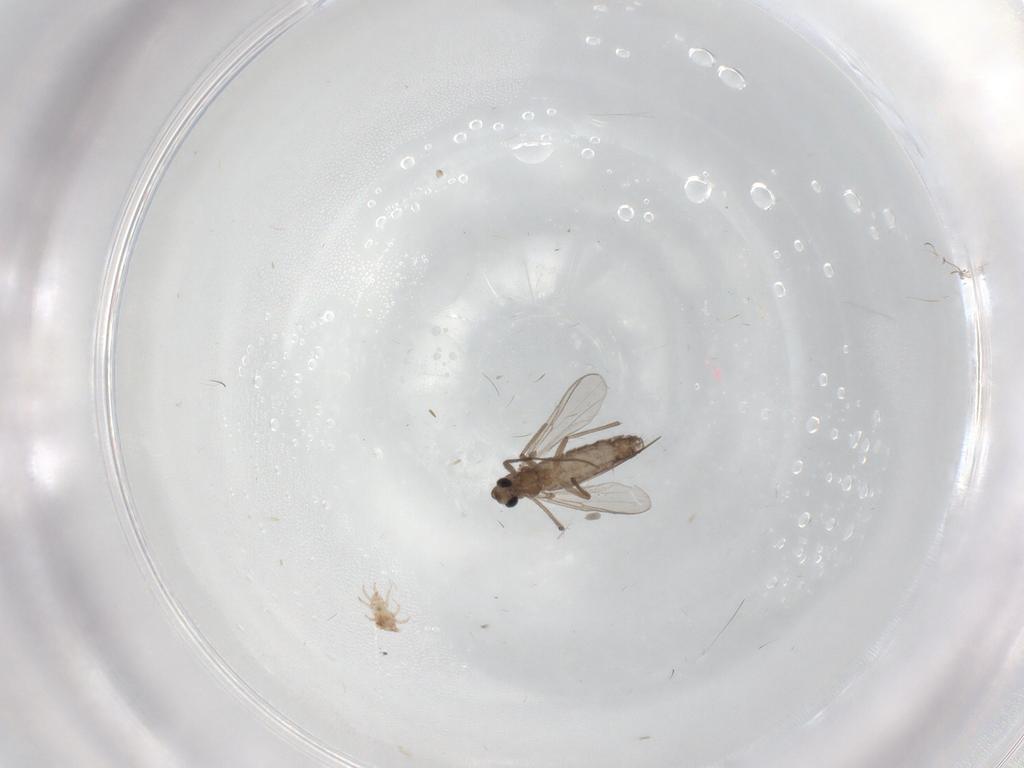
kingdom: Animalia
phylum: Arthropoda
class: Insecta
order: Diptera
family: Chironomidae
